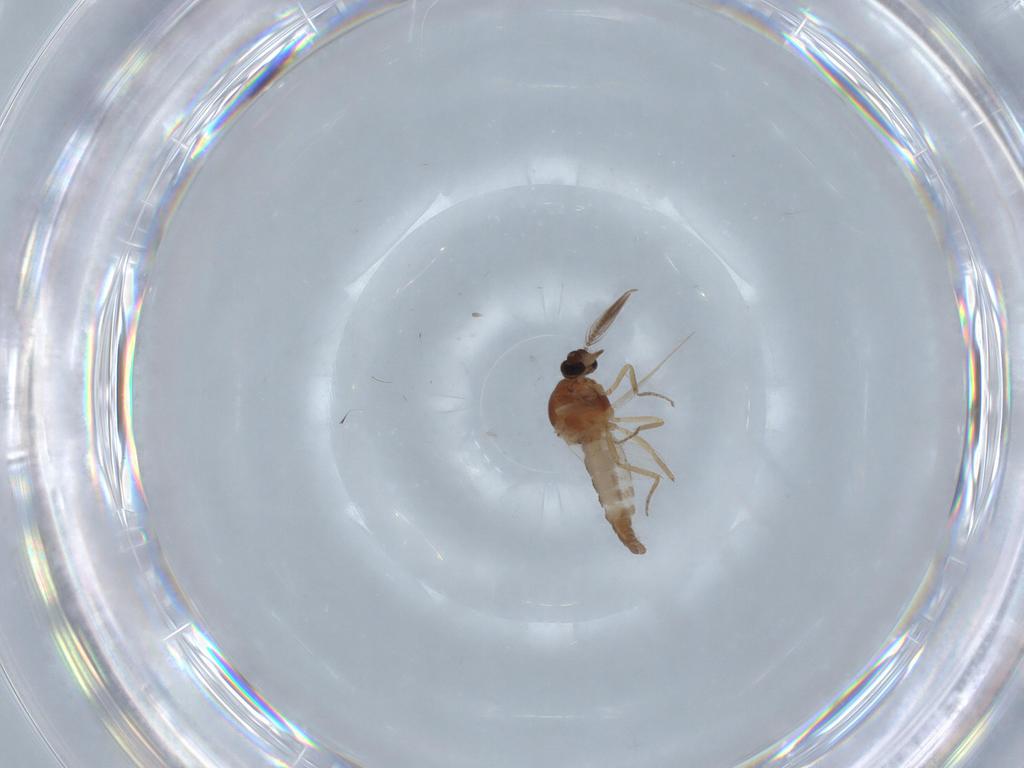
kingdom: Animalia
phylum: Arthropoda
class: Insecta
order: Diptera
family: Ceratopogonidae
